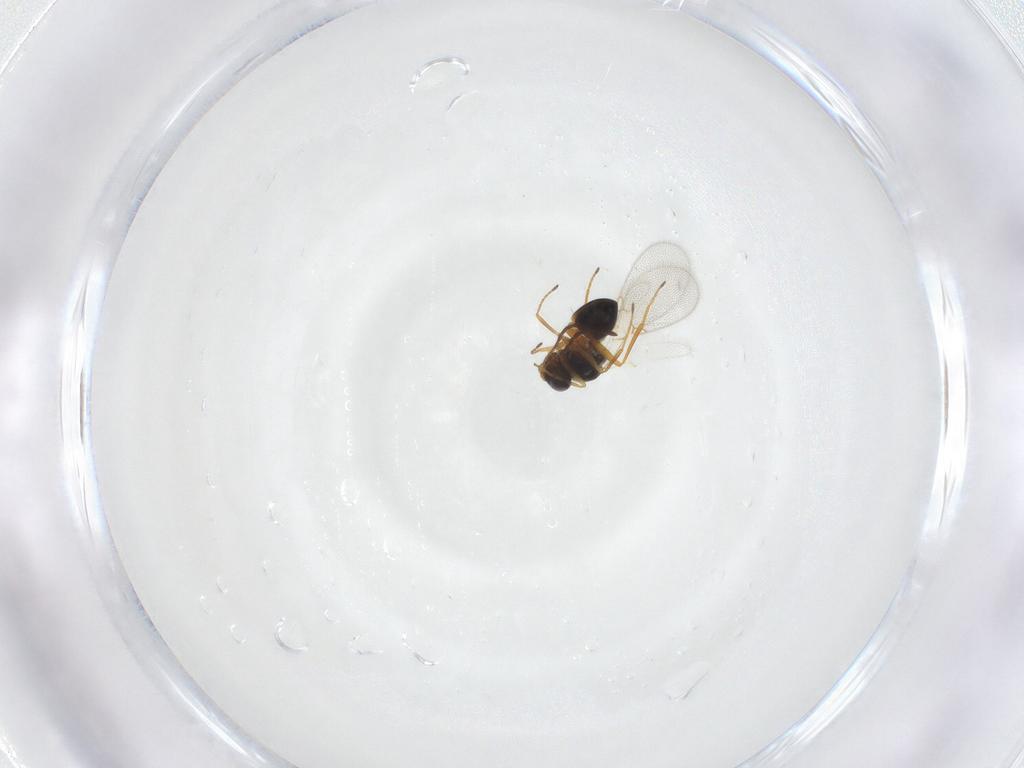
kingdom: Animalia
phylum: Arthropoda
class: Insecta
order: Hymenoptera
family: Figitidae
